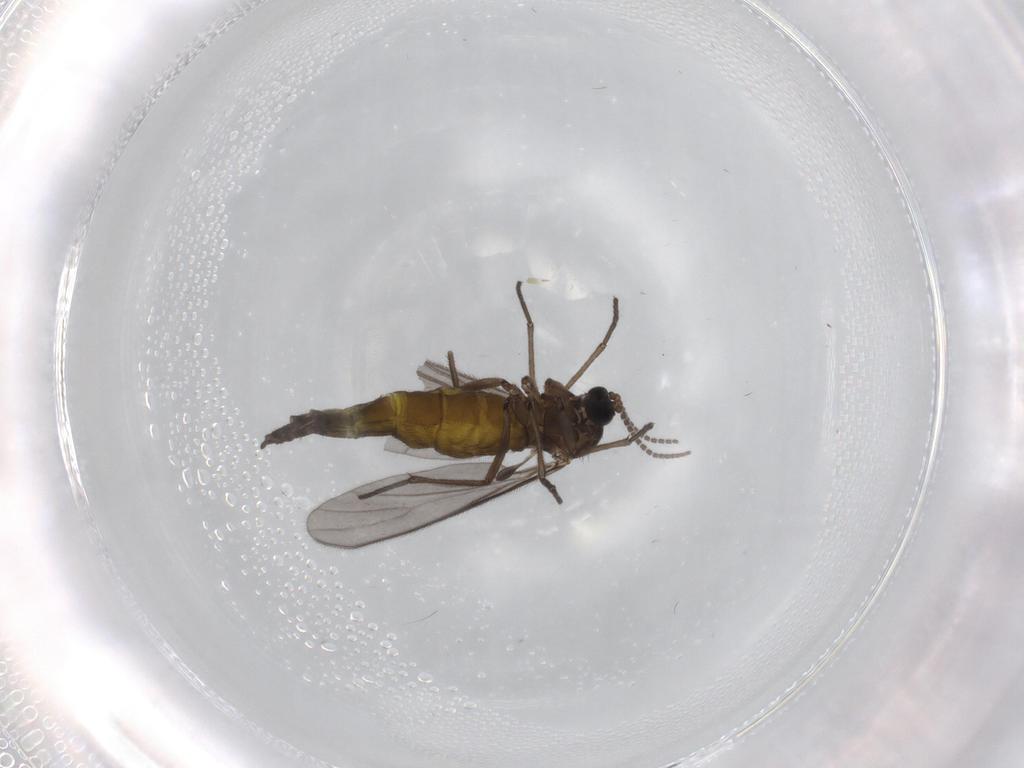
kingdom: Animalia
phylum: Arthropoda
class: Insecta
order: Diptera
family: Sciaridae
